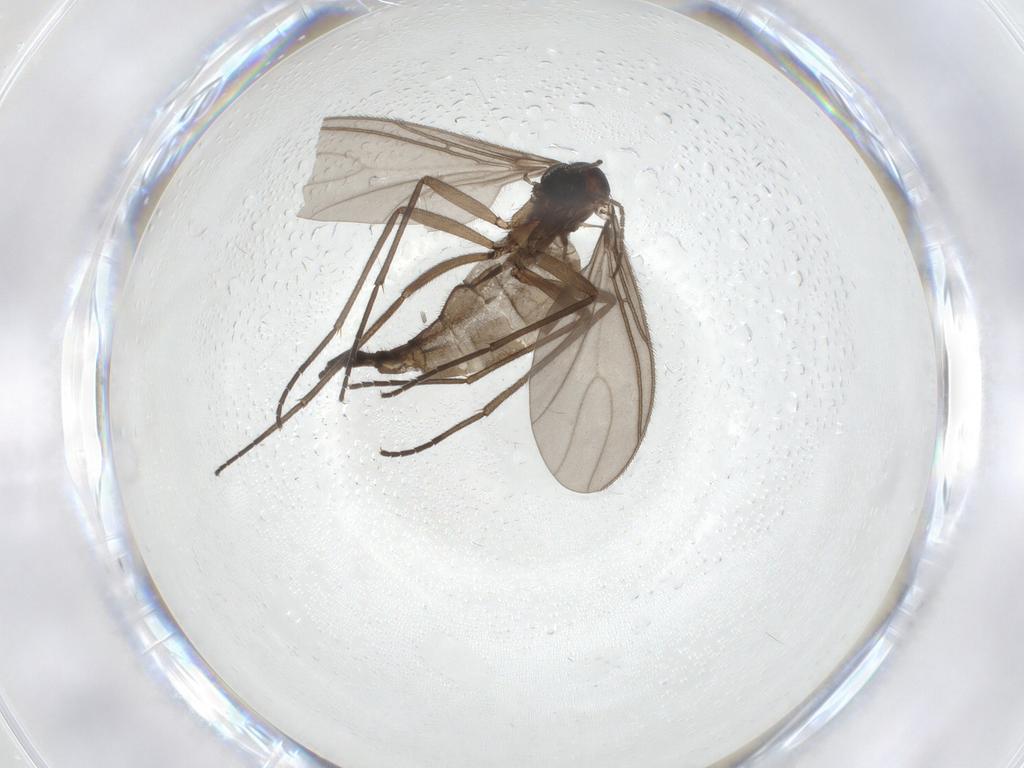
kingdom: Animalia
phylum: Arthropoda
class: Insecta
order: Diptera
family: Sciaridae
